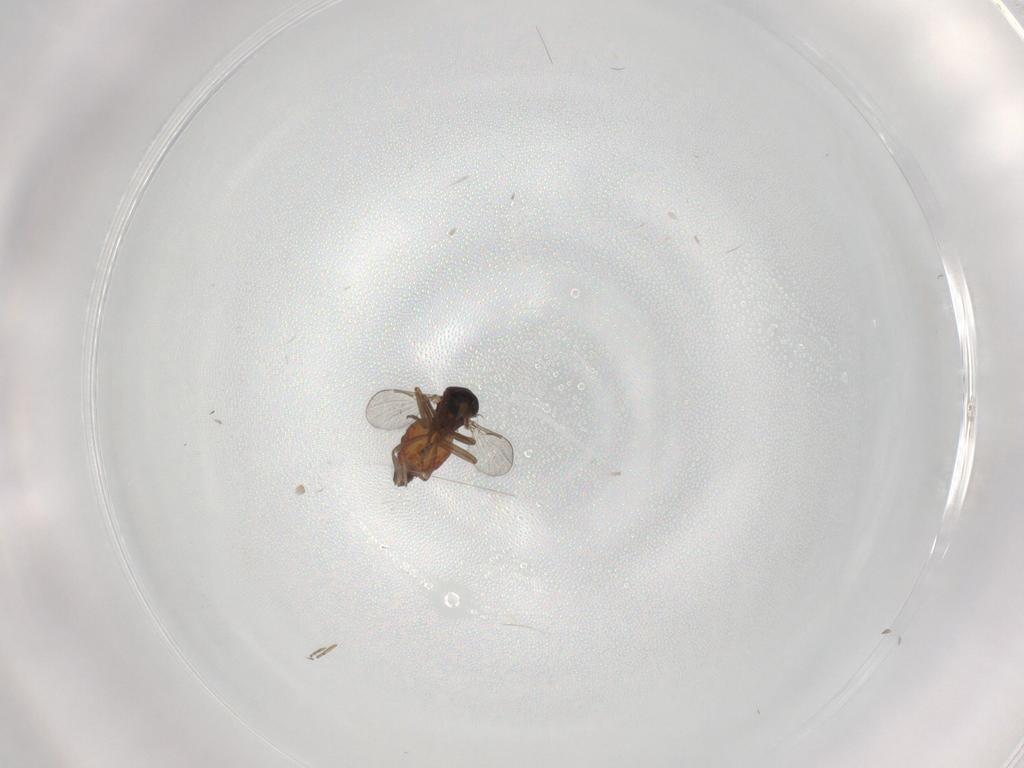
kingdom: Animalia
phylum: Arthropoda
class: Insecta
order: Diptera
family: Ceratopogonidae
